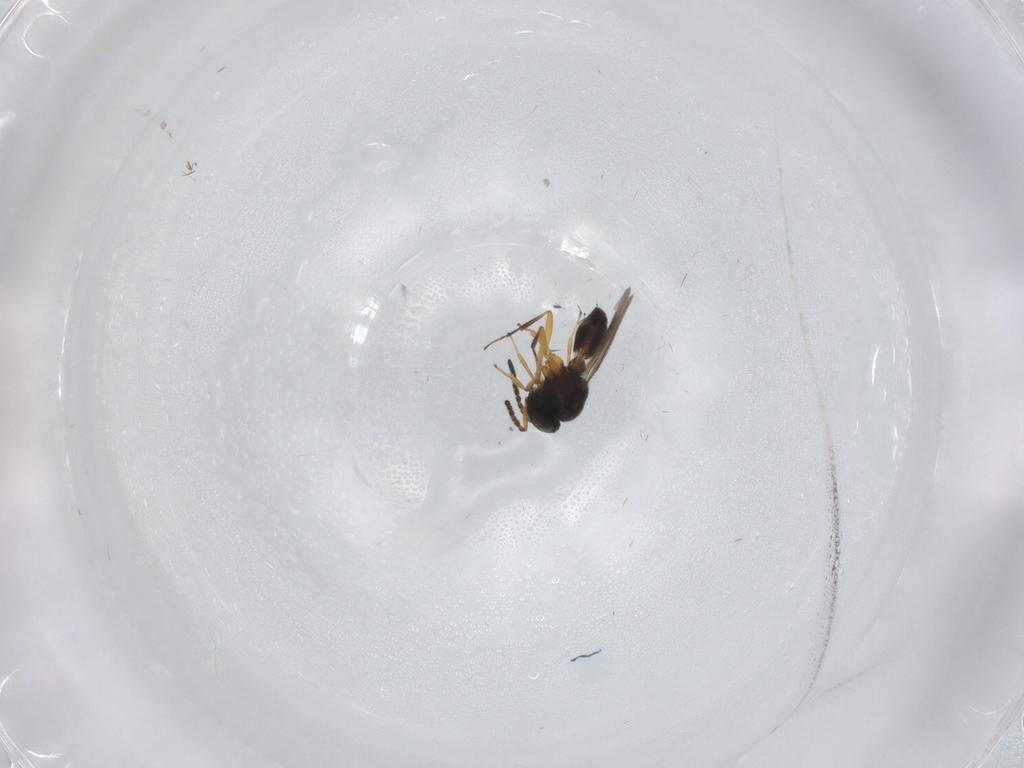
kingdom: Animalia
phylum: Arthropoda
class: Insecta
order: Hymenoptera
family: Scelionidae
